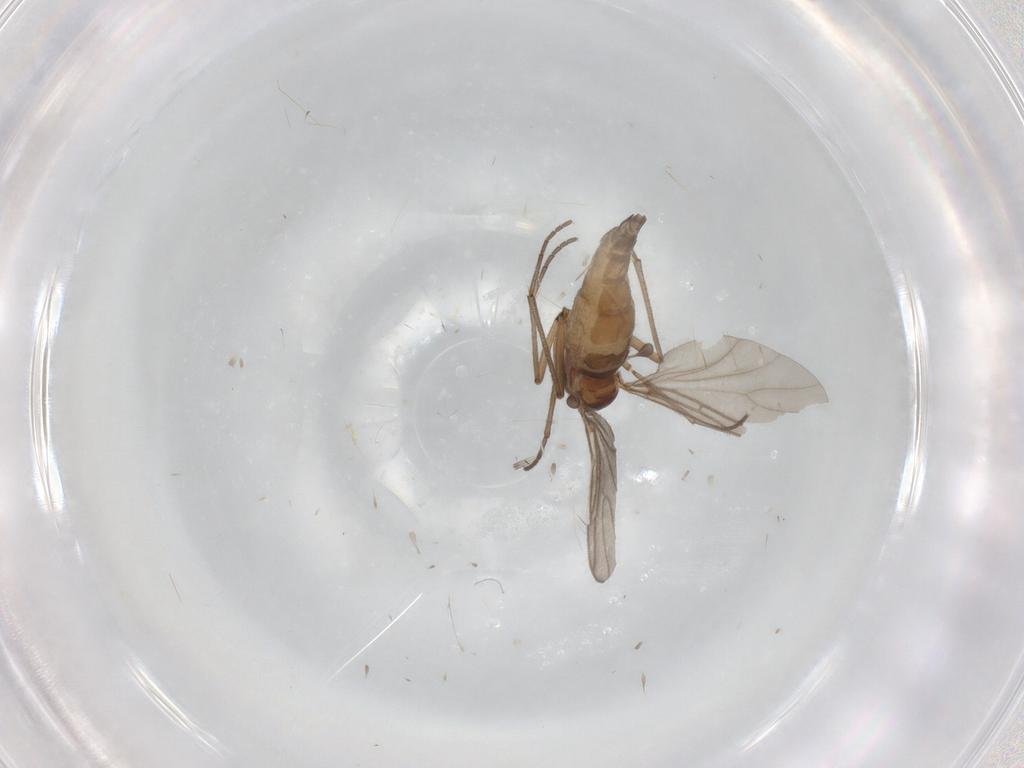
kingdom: Animalia
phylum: Arthropoda
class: Insecta
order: Diptera
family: Sciaridae
